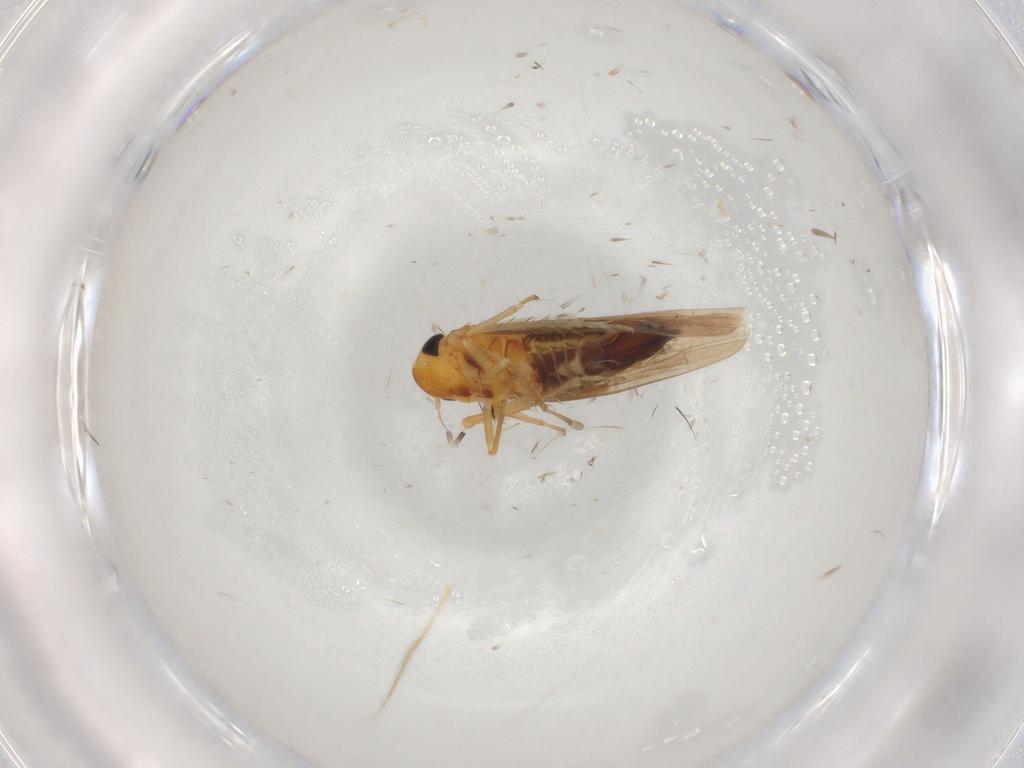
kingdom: Animalia
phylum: Arthropoda
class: Insecta
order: Hemiptera
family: Cicadellidae
